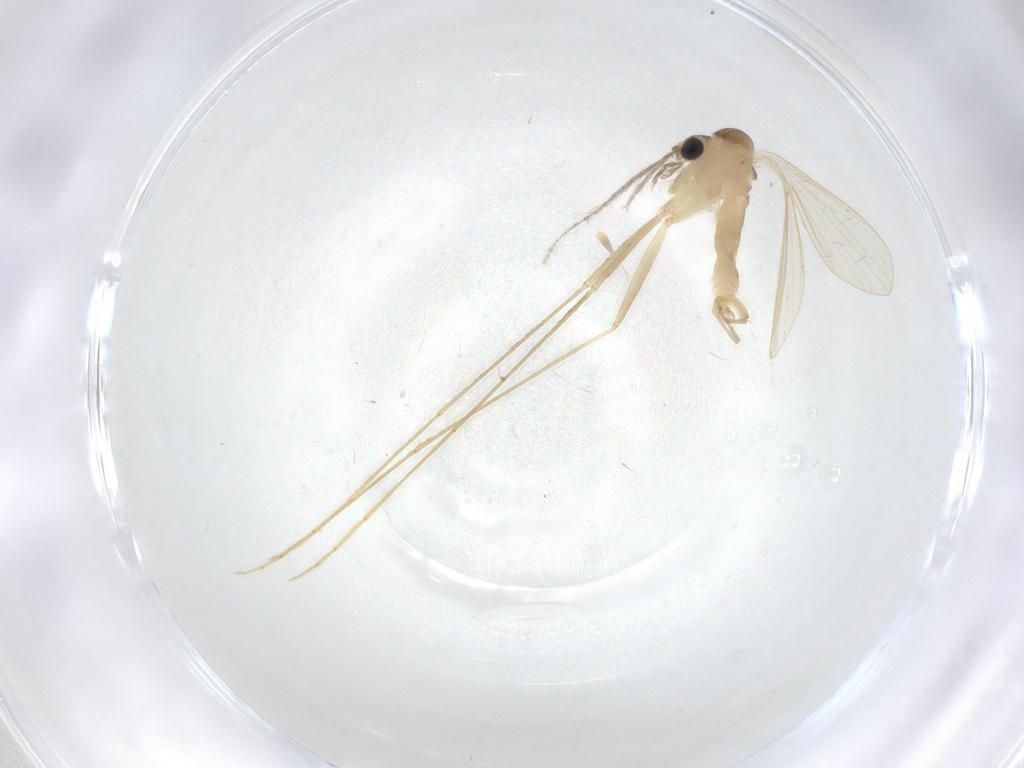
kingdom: Animalia
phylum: Arthropoda
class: Insecta
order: Diptera
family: Psychodidae
